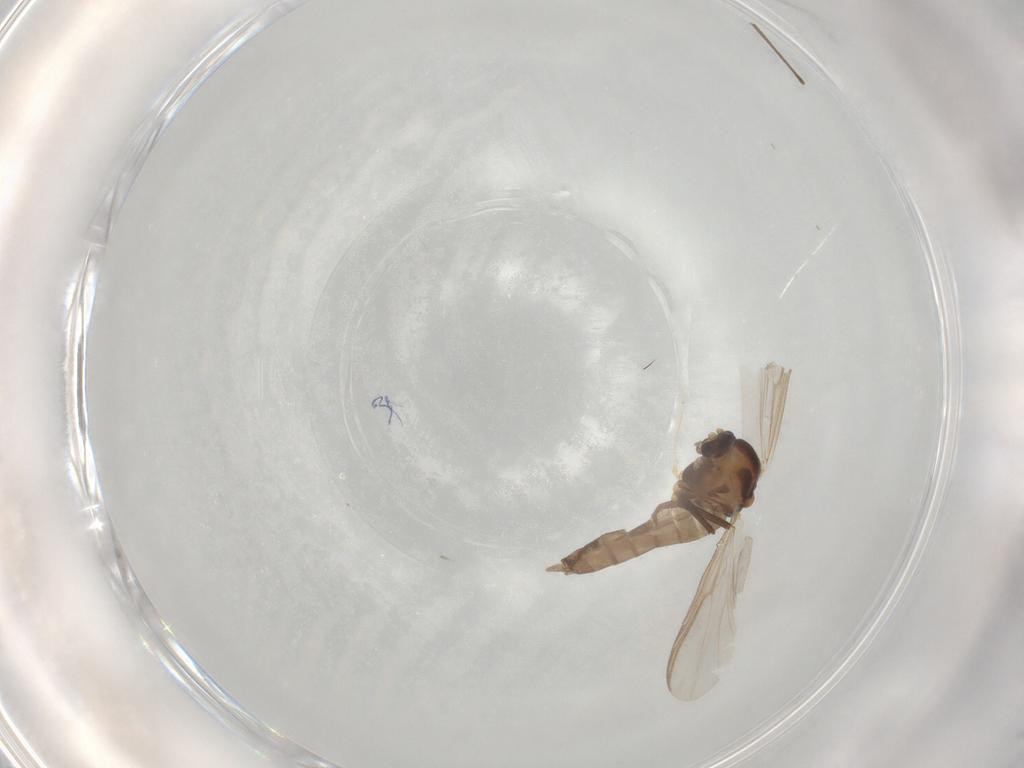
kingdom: Animalia
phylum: Arthropoda
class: Insecta
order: Diptera
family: Chironomidae
